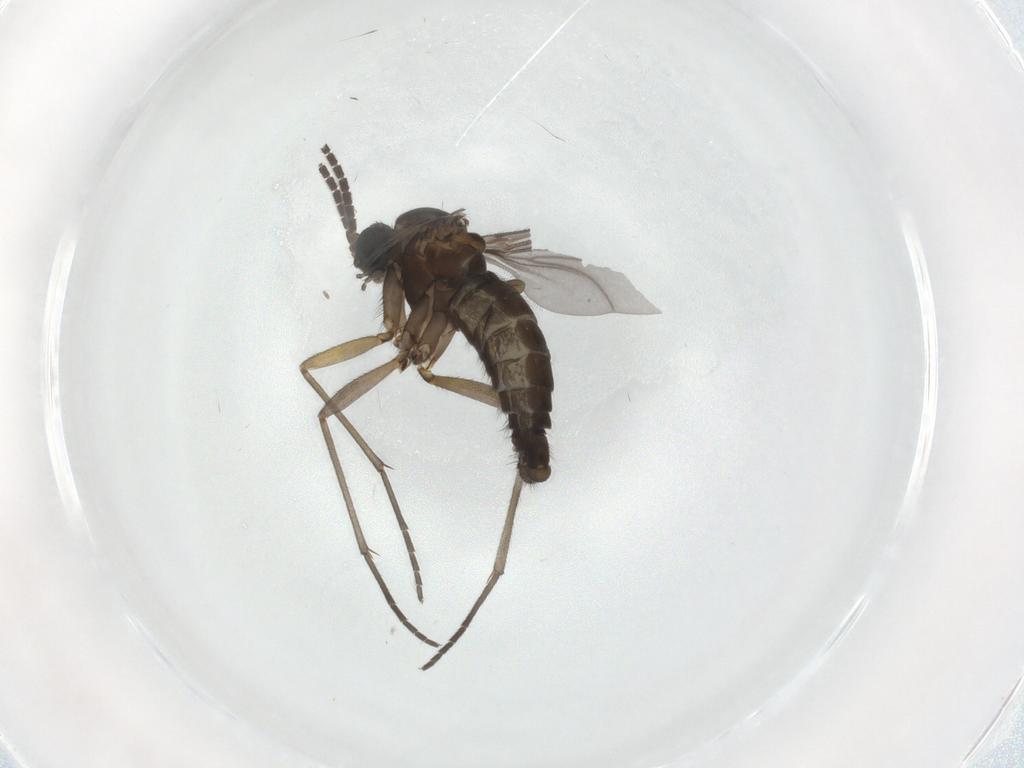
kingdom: Animalia
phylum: Arthropoda
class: Insecta
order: Diptera
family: Sciaridae
